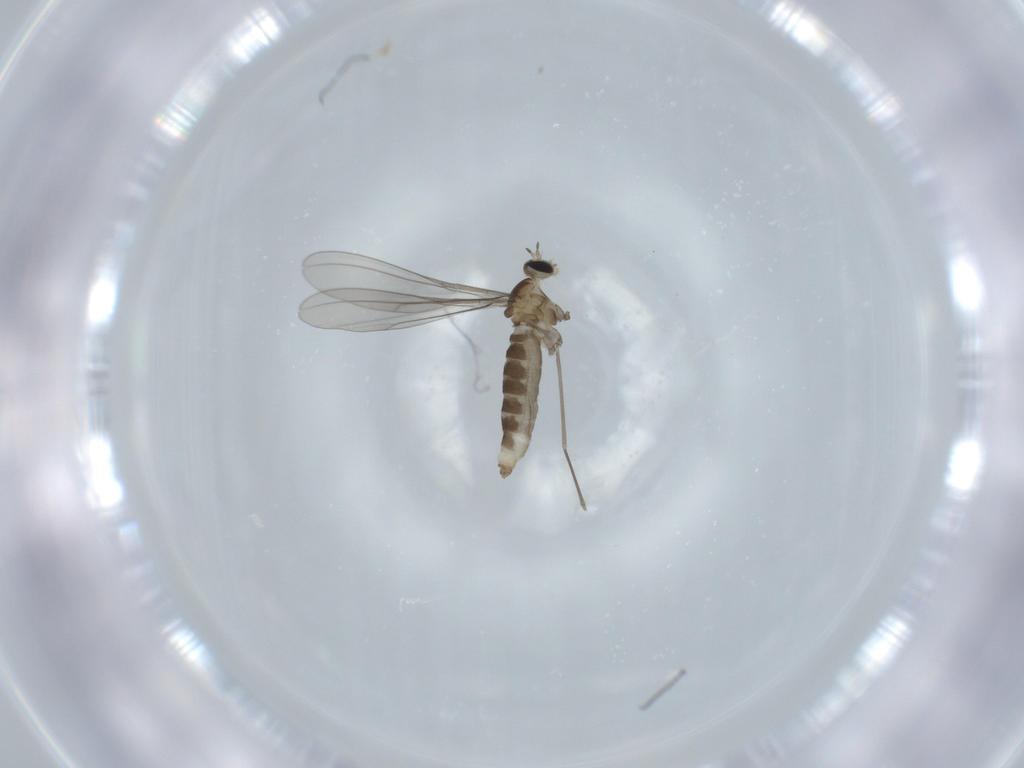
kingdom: Animalia
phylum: Arthropoda
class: Insecta
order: Diptera
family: Cecidomyiidae
